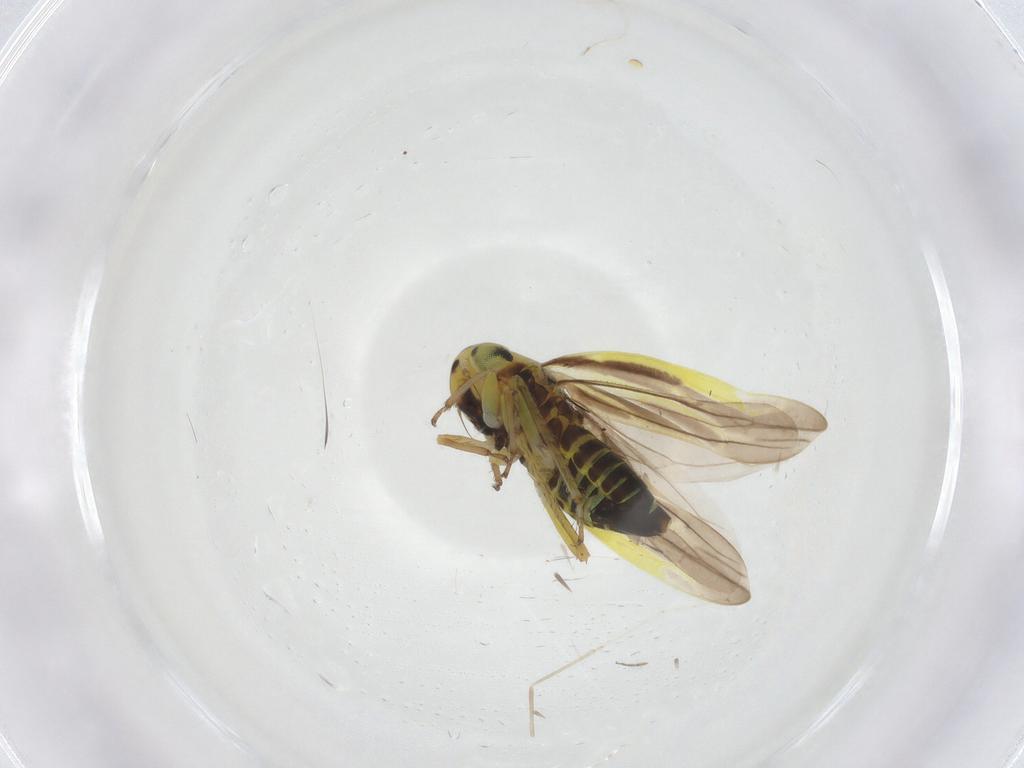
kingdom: Animalia
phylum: Arthropoda
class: Insecta
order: Hemiptera
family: Cicadellidae
